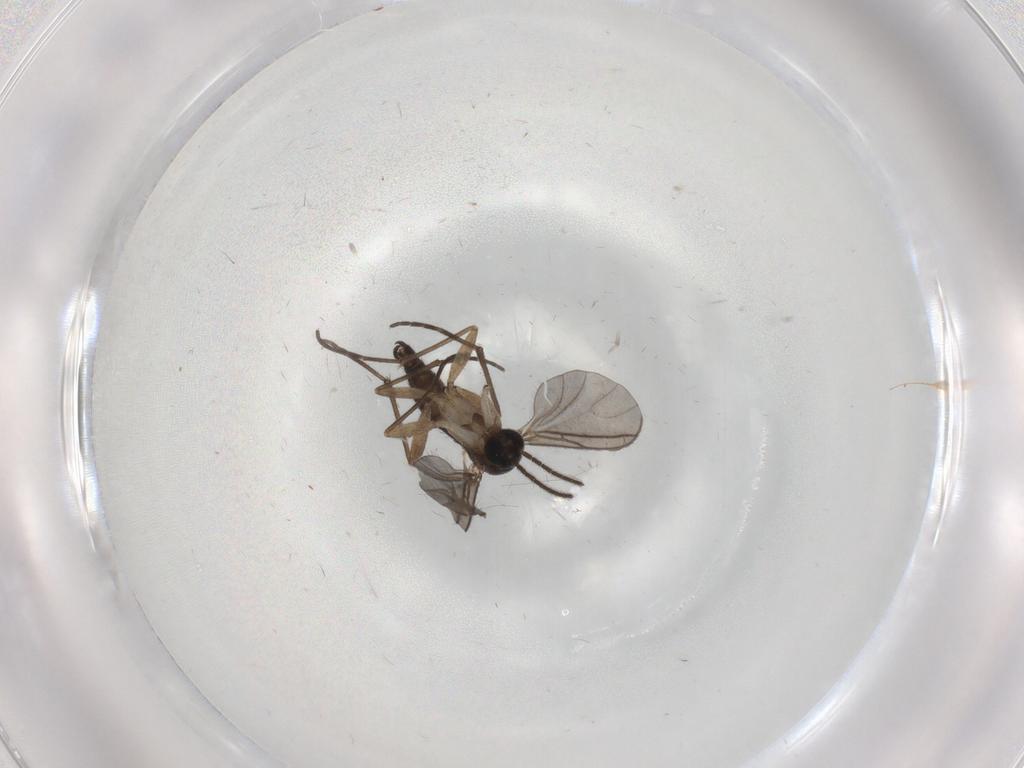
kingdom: Animalia
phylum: Arthropoda
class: Insecta
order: Diptera
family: Sciaridae
